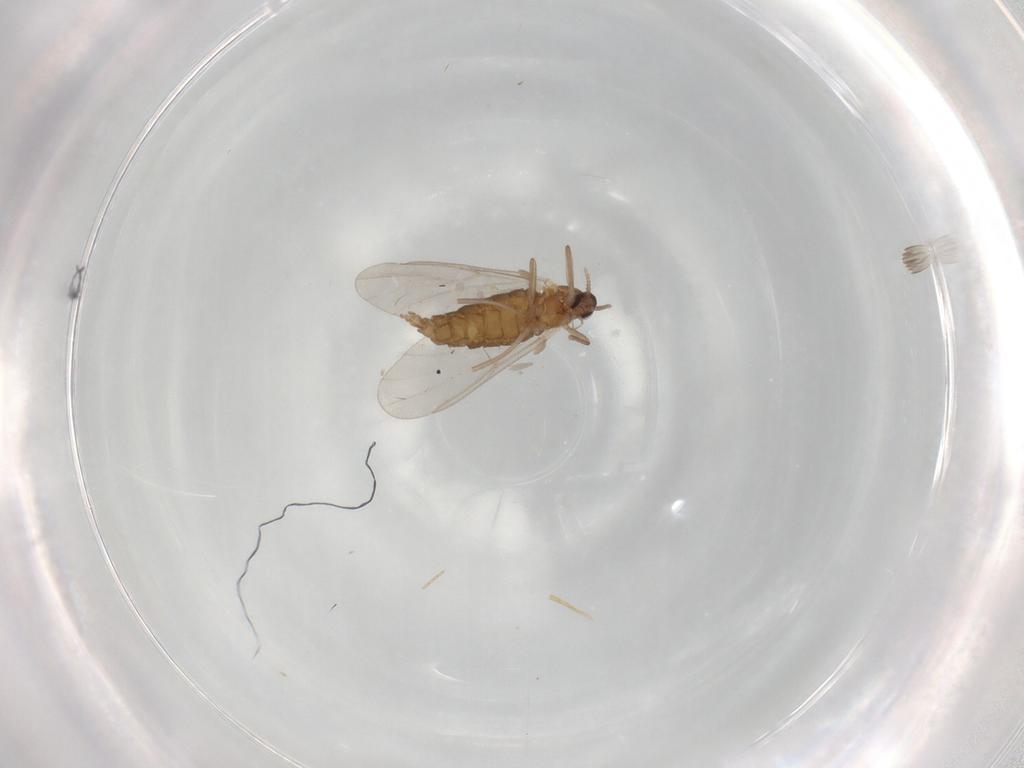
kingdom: Animalia
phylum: Arthropoda
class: Insecta
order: Diptera
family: Cecidomyiidae
